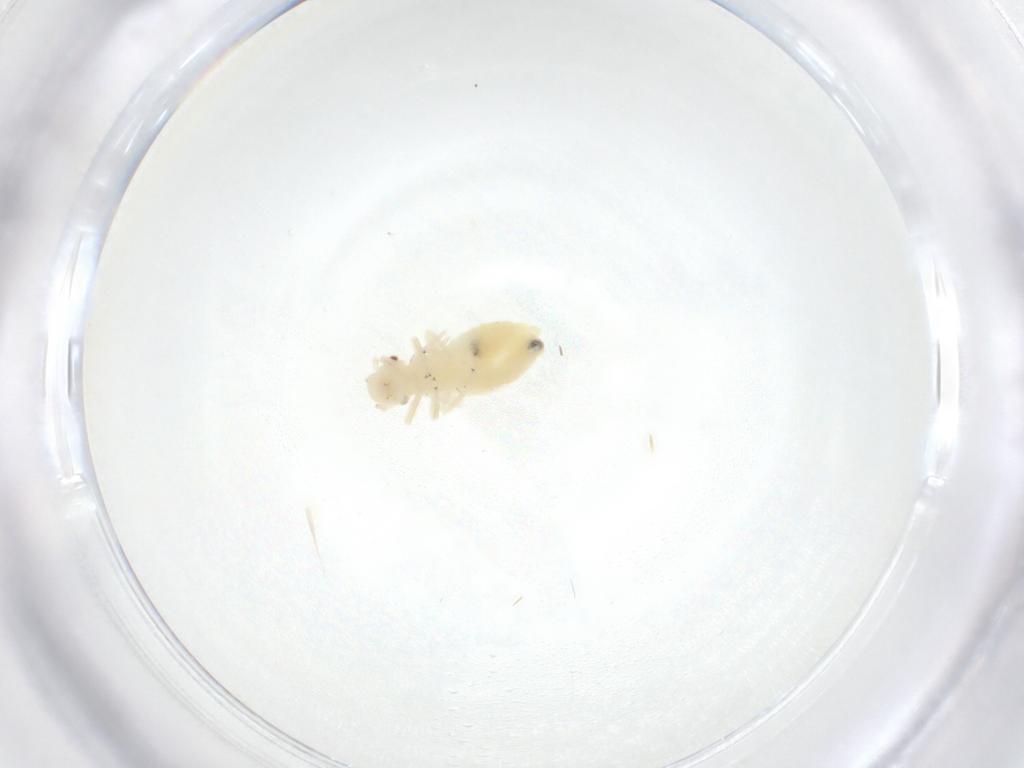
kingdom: Animalia
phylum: Arthropoda
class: Insecta
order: Psocodea
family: Caeciliusidae
